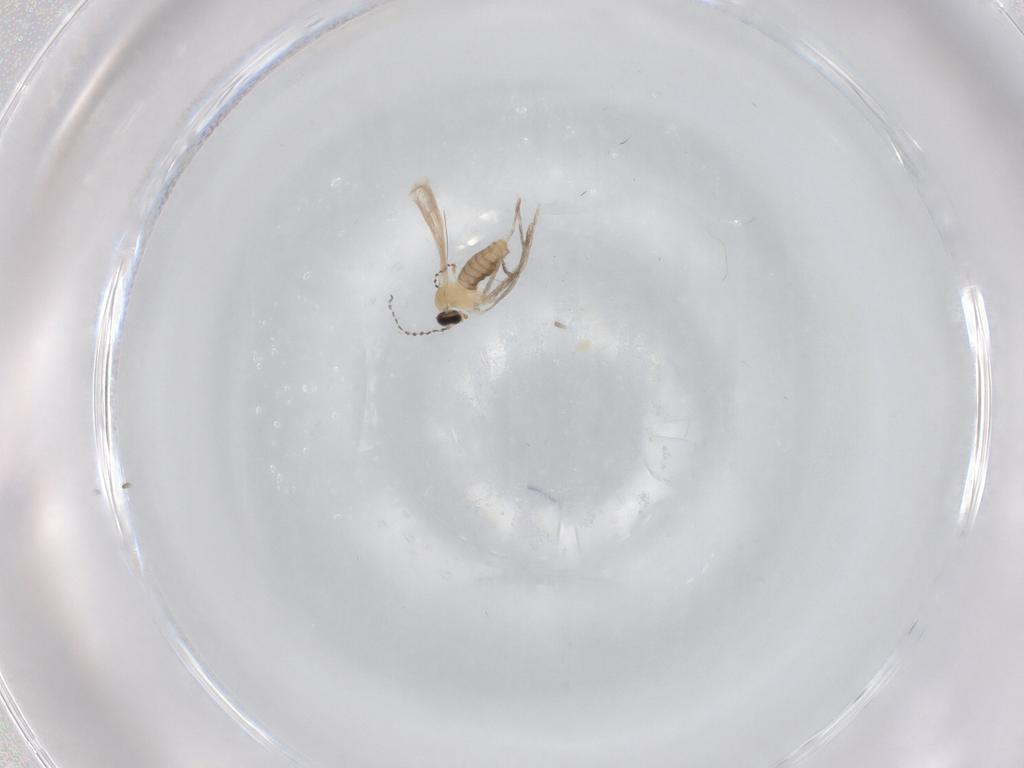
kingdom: Animalia
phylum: Arthropoda
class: Insecta
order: Diptera
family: Cecidomyiidae
